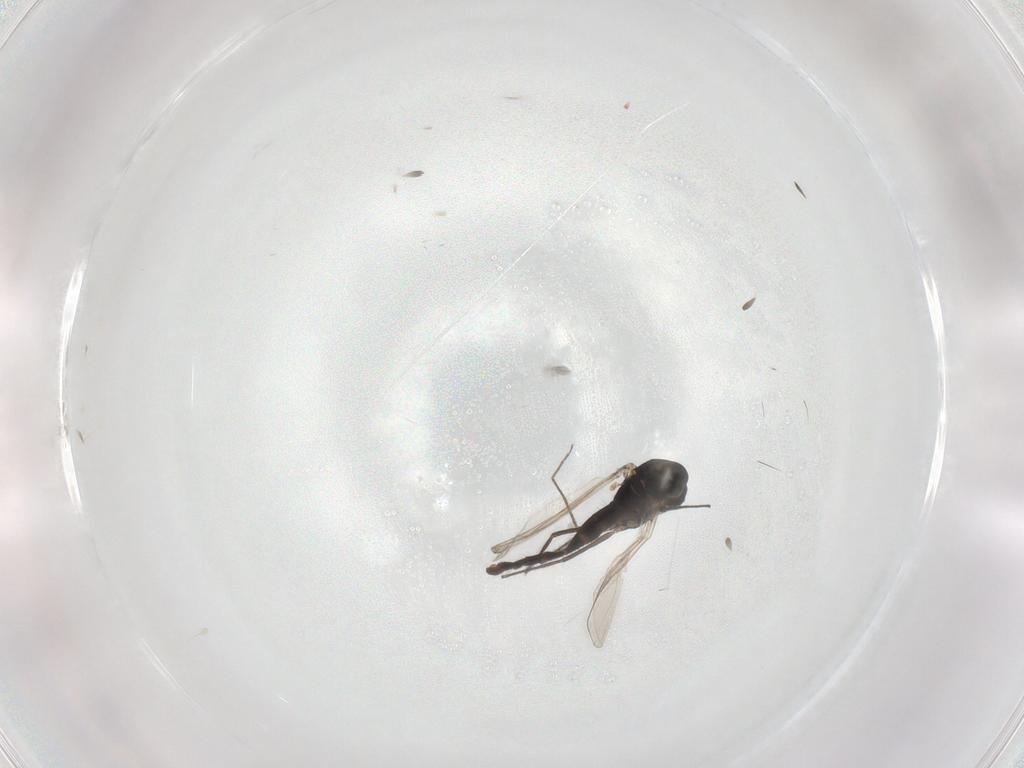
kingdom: Animalia
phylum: Arthropoda
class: Insecta
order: Diptera
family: Chironomidae
